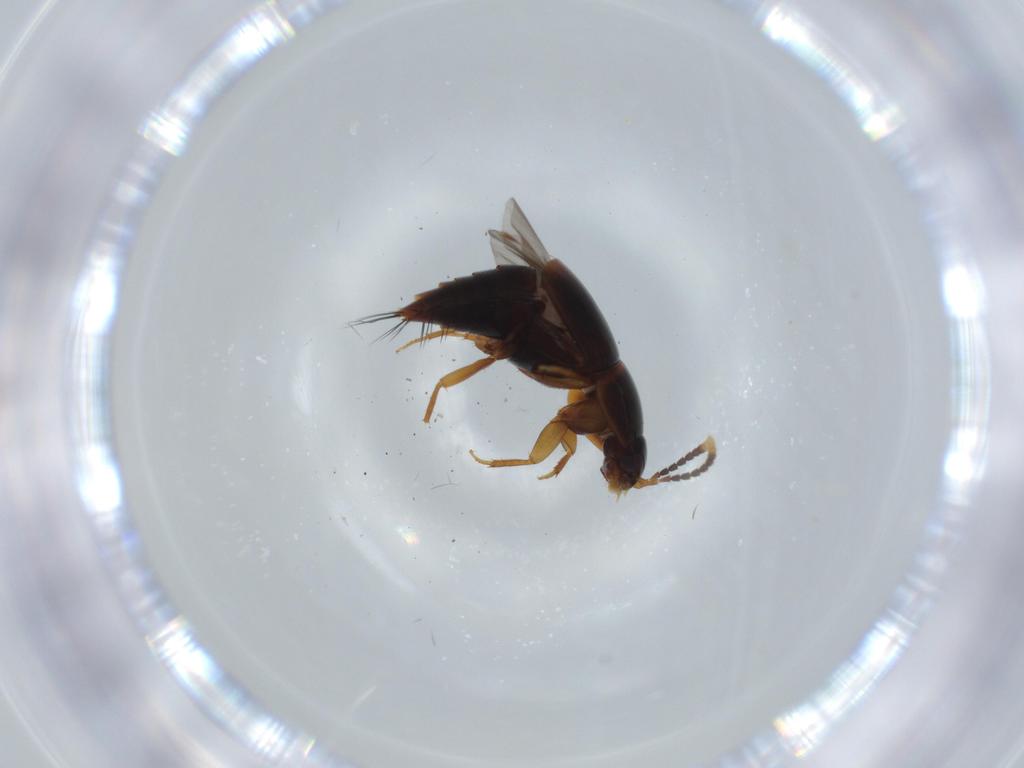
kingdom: Animalia
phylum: Arthropoda
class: Insecta
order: Coleoptera
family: Staphylinidae
